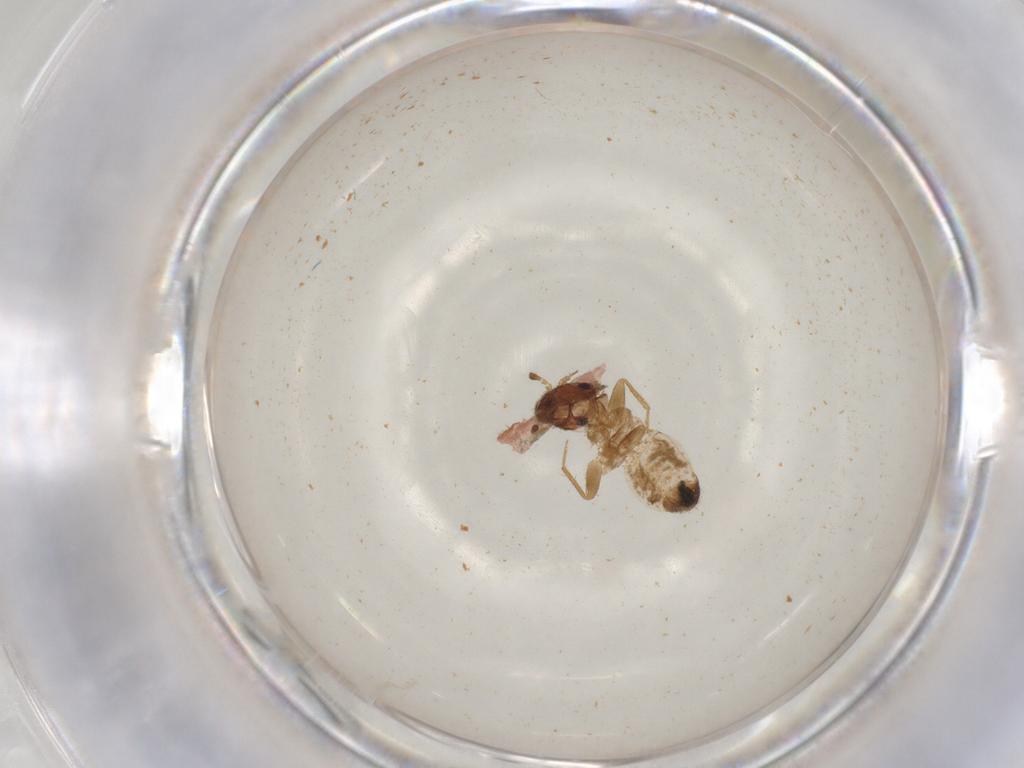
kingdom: Animalia
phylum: Arthropoda
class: Insecta
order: Psocodea
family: Lepidopsocidae
